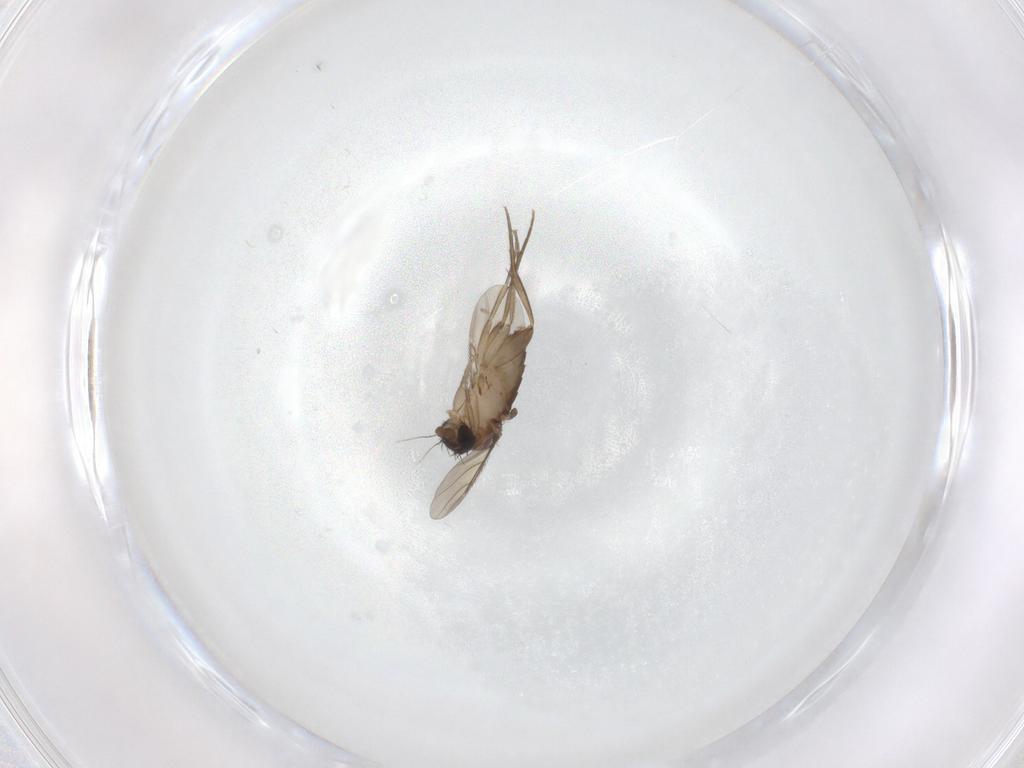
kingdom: Animalia
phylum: Arthropoda
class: Insecta
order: Diptera
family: Phoridae
